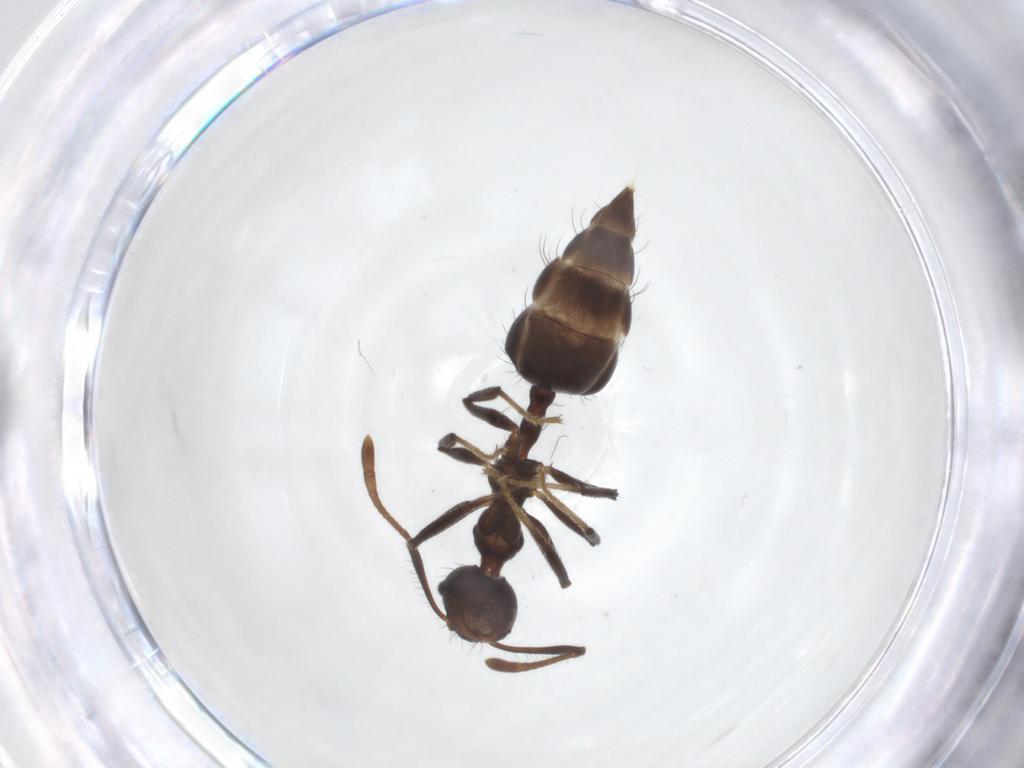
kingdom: Animalia
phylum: Arthropoda
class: Insecta
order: Hymenoptera
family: Formicidae
